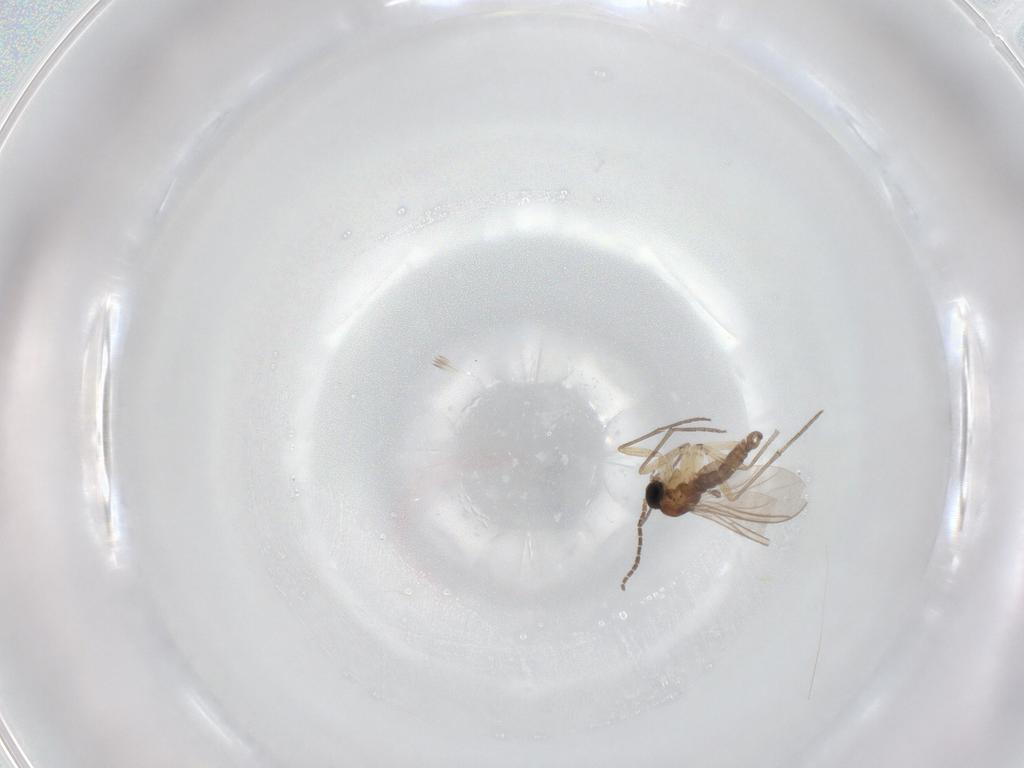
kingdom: Animalia
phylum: Arthropoda
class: Insecta
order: Diptera
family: Sciaridae
